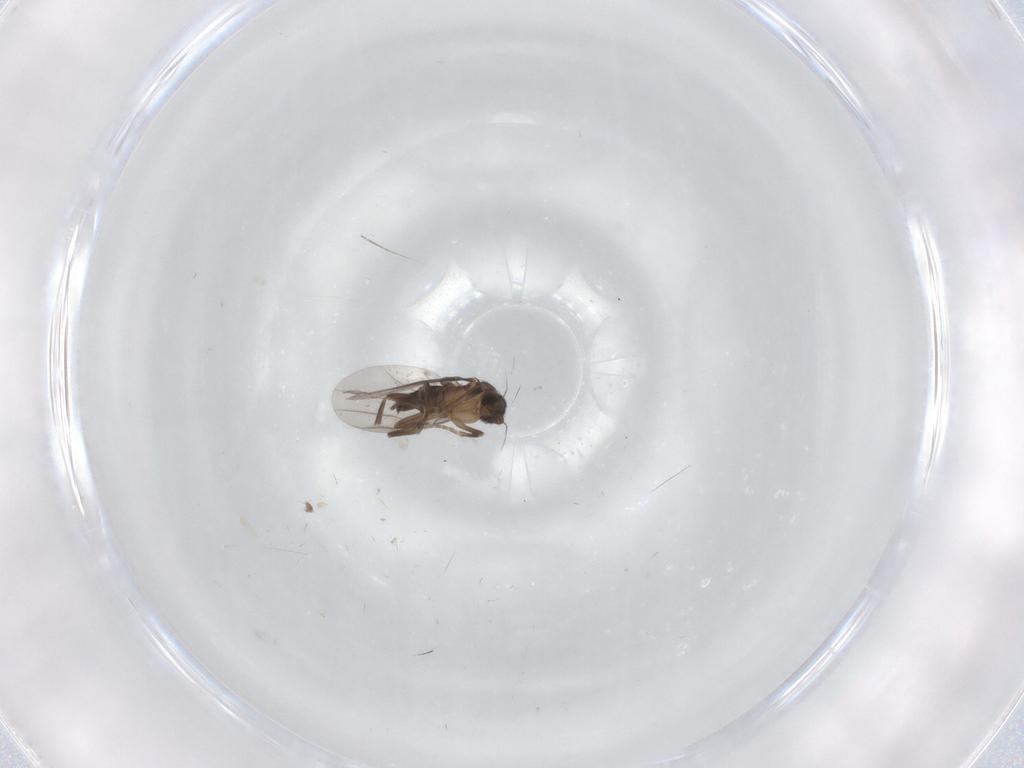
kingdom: Animalia
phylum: Arthropoda
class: Insecta
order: Diptera
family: Phoridae
